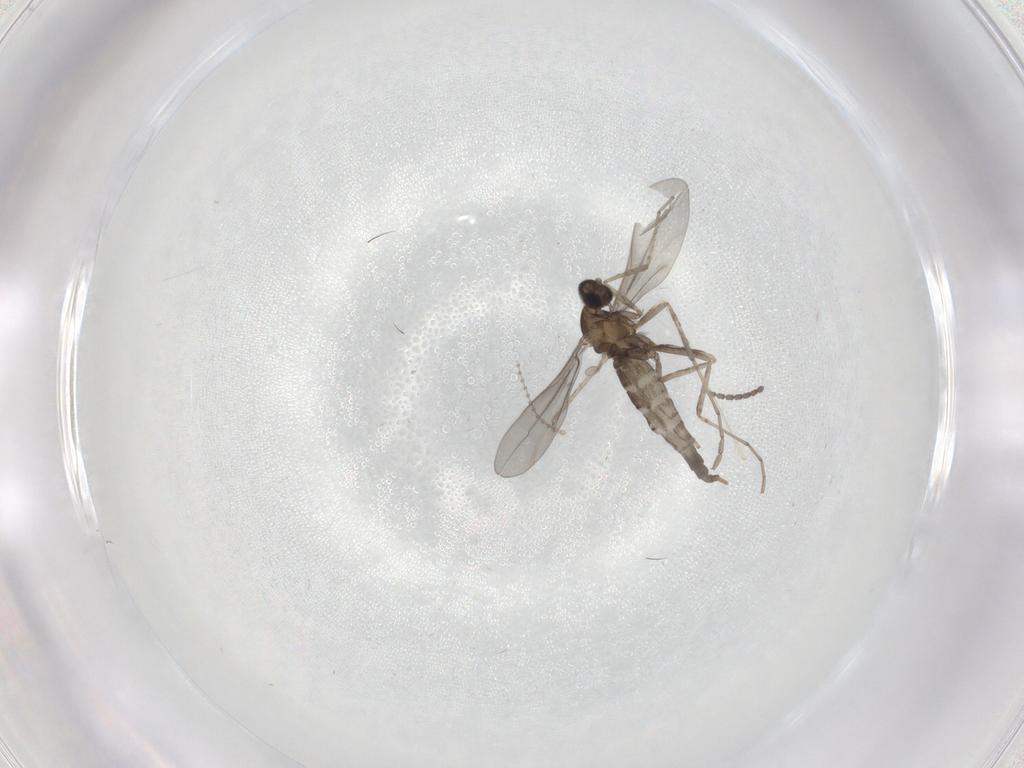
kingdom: Animalia
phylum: Arthropoda
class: Insecta
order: Diptera
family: Cecidomyiidae
